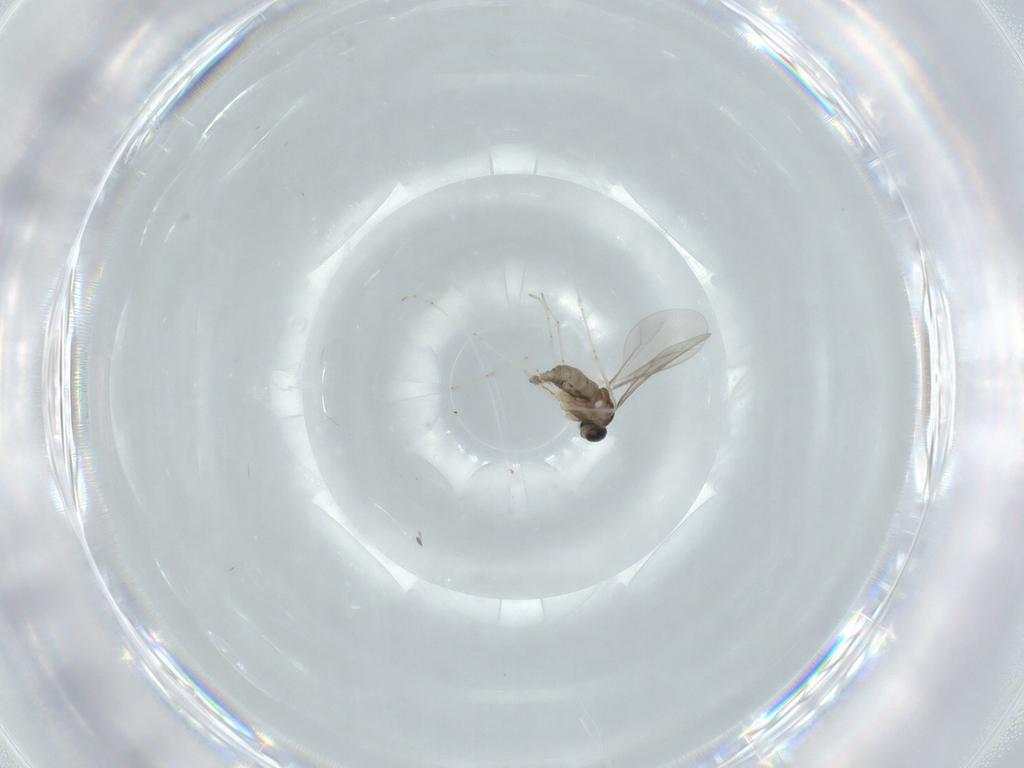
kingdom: Animalia
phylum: Arthropoda
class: Insecta
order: Diptera
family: Cecidomyiidae
